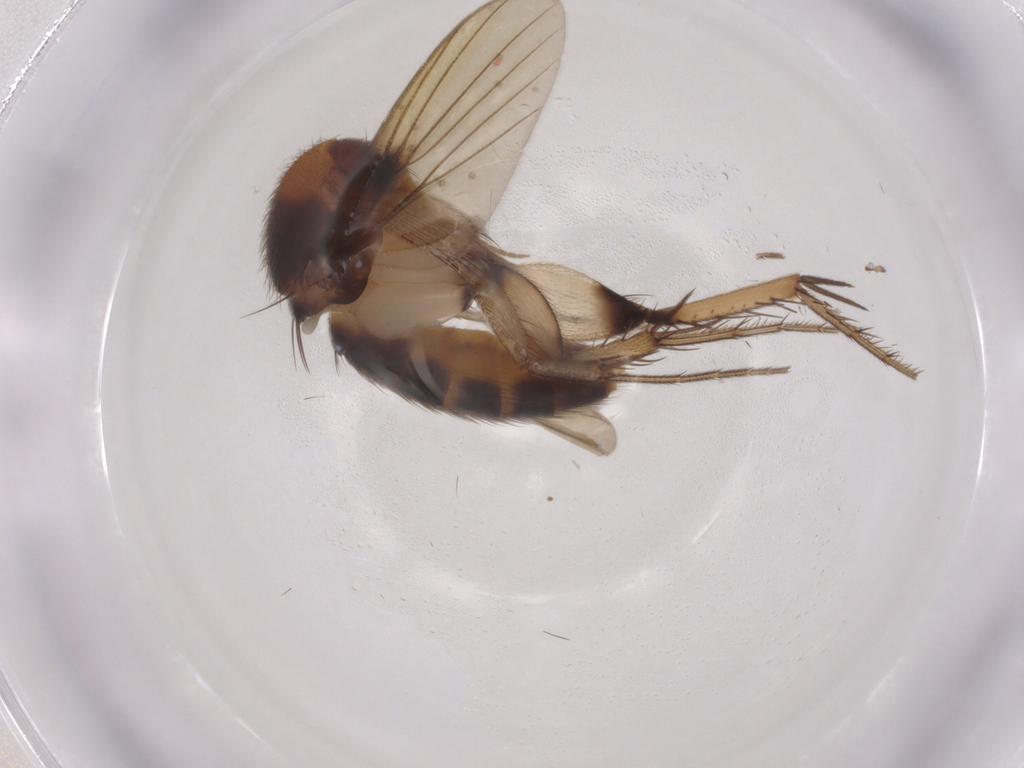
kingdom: Animalia
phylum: Arthropoda
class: Insecta
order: Diptera
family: Mycetophilidae
